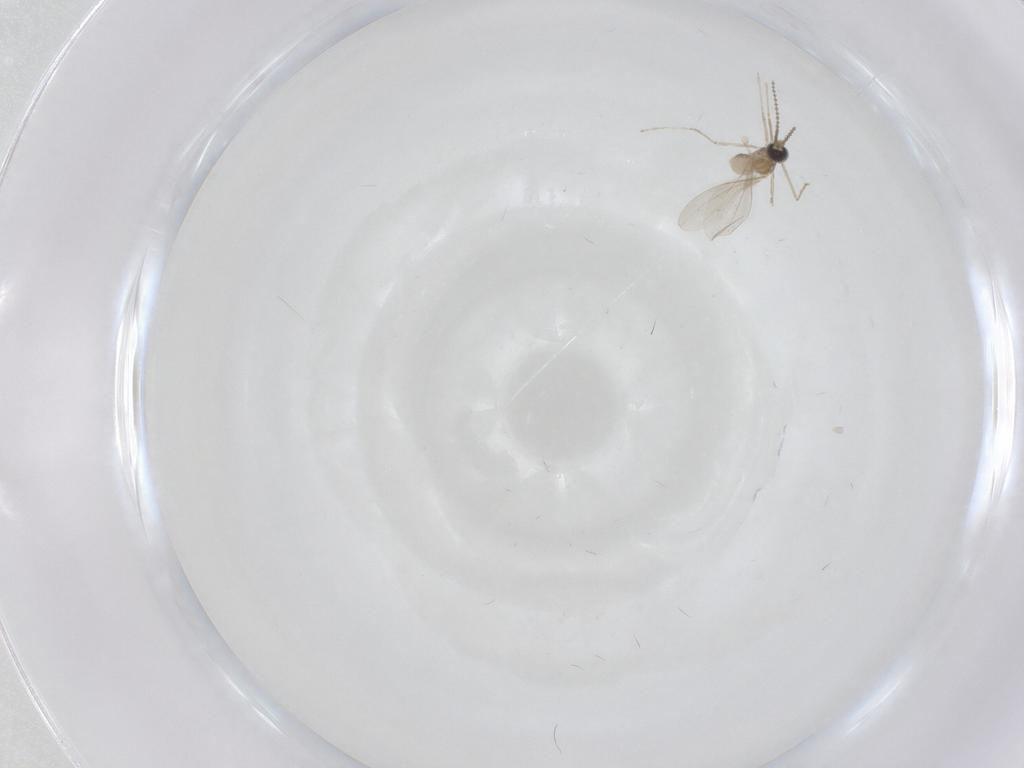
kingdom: Animalia
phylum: Arthropoda
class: Insecta
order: Diptera
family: Cecidomyiidae
